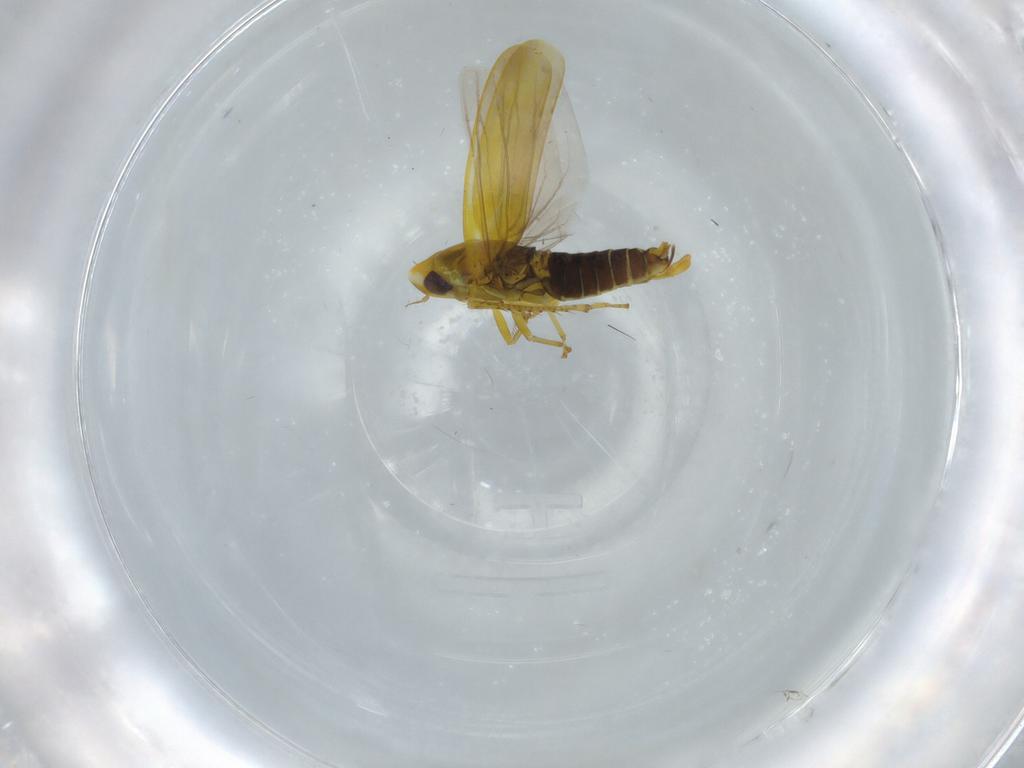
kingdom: Animalia
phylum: Arthropoda
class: Insecta
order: Hemiptera
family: Cicadellidae
